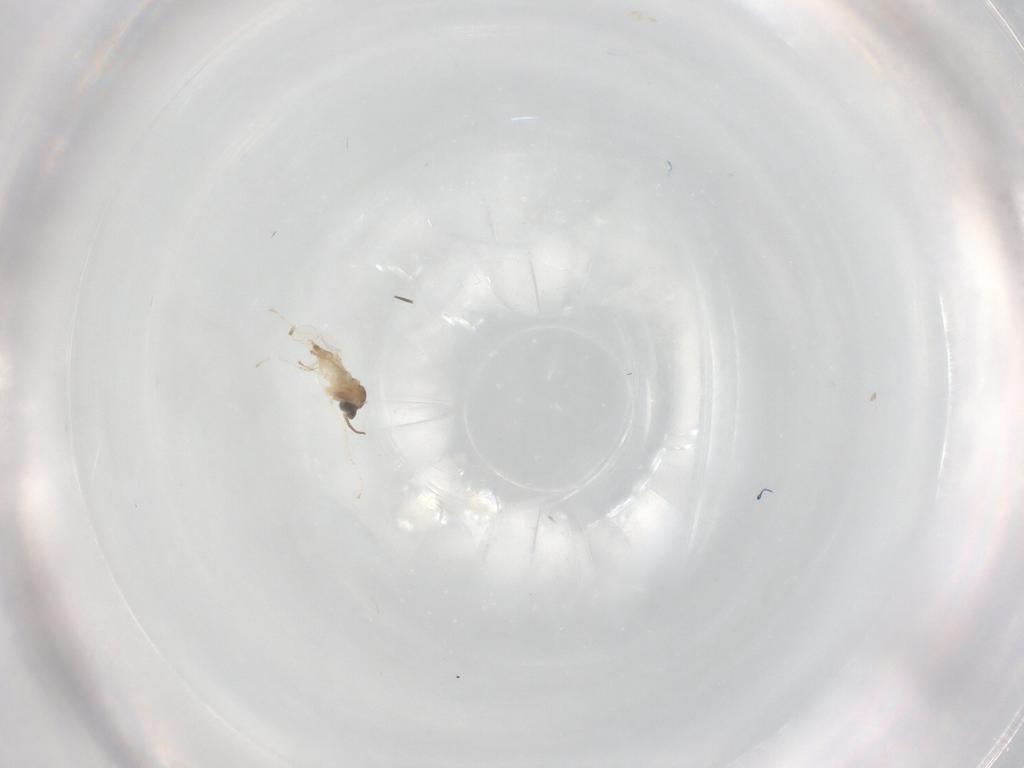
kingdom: Animalia
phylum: Arthropoda
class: Insecta
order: Diptera
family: Cecidomyiidae
